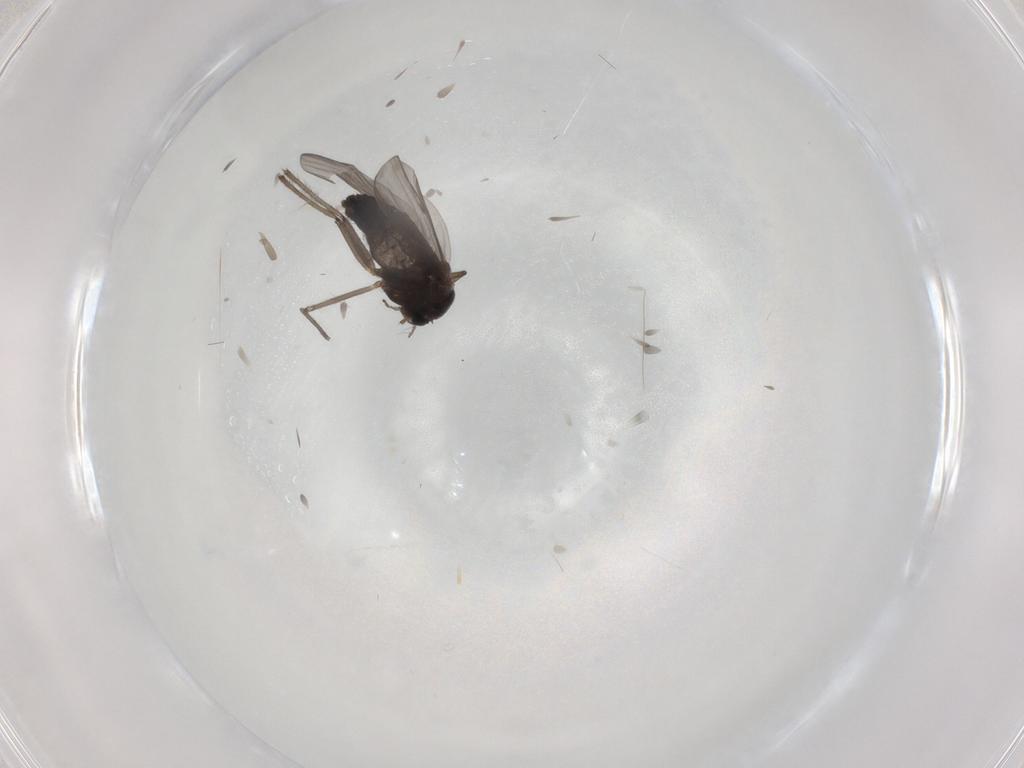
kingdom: Animalia
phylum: Arthropoda
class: Insecta
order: Diptera
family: Chironomidae
